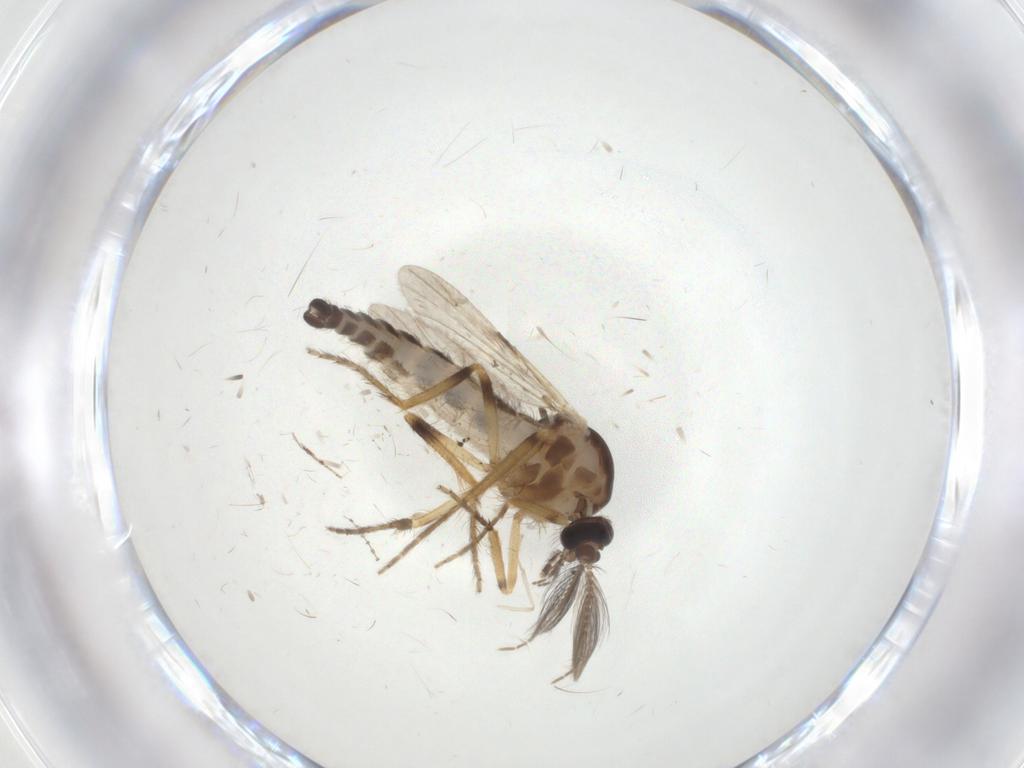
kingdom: Animalia
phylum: Arthropoda
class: Insecta
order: Diptera
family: Ceratopogonidae
